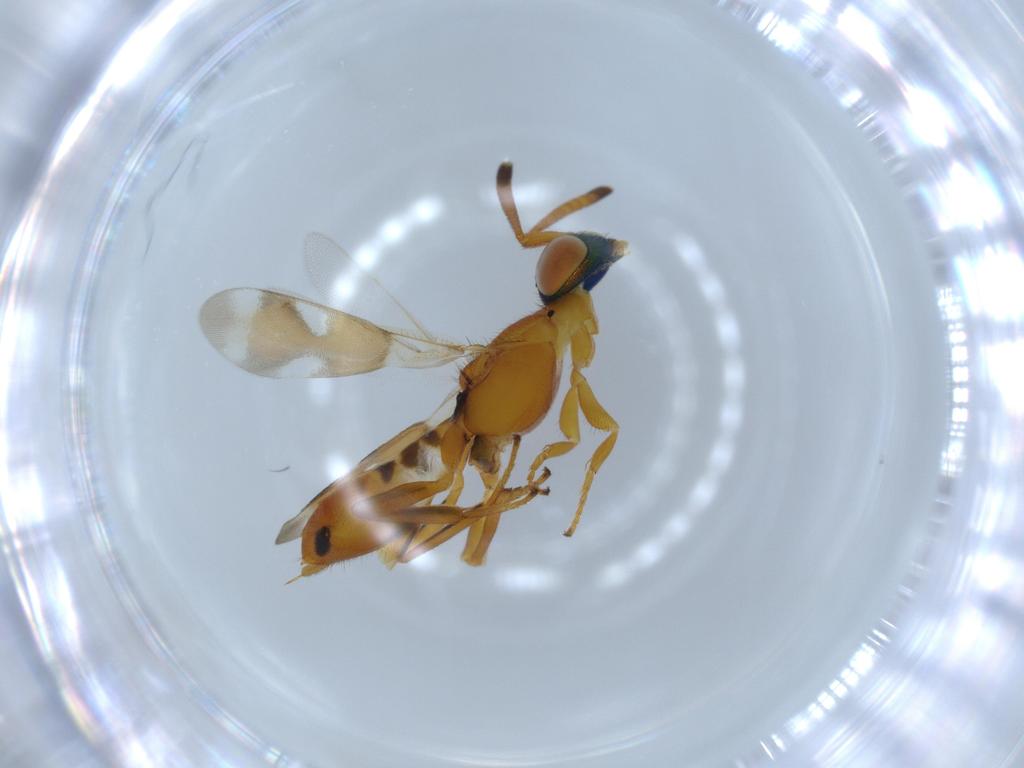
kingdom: Animalia
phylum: Arthropoda
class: Insecta
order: Hymenoptera
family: Eupelmidae
